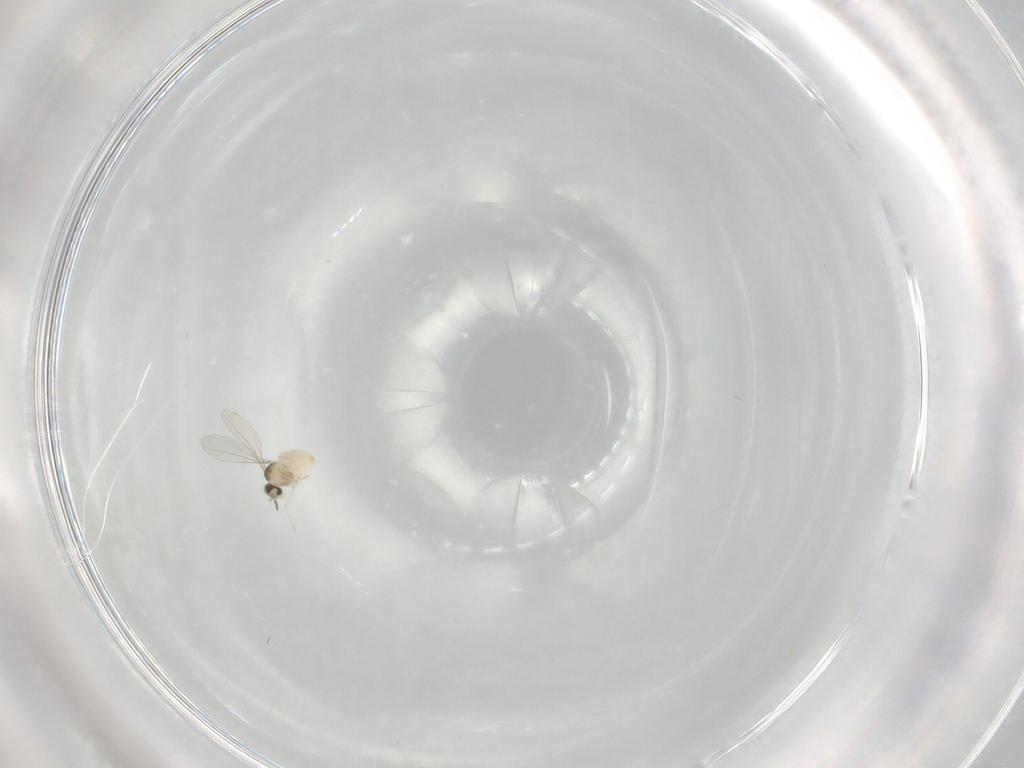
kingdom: Animalia
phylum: Arthropoda
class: Insecta
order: Diptera
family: Cecidomyiidae
